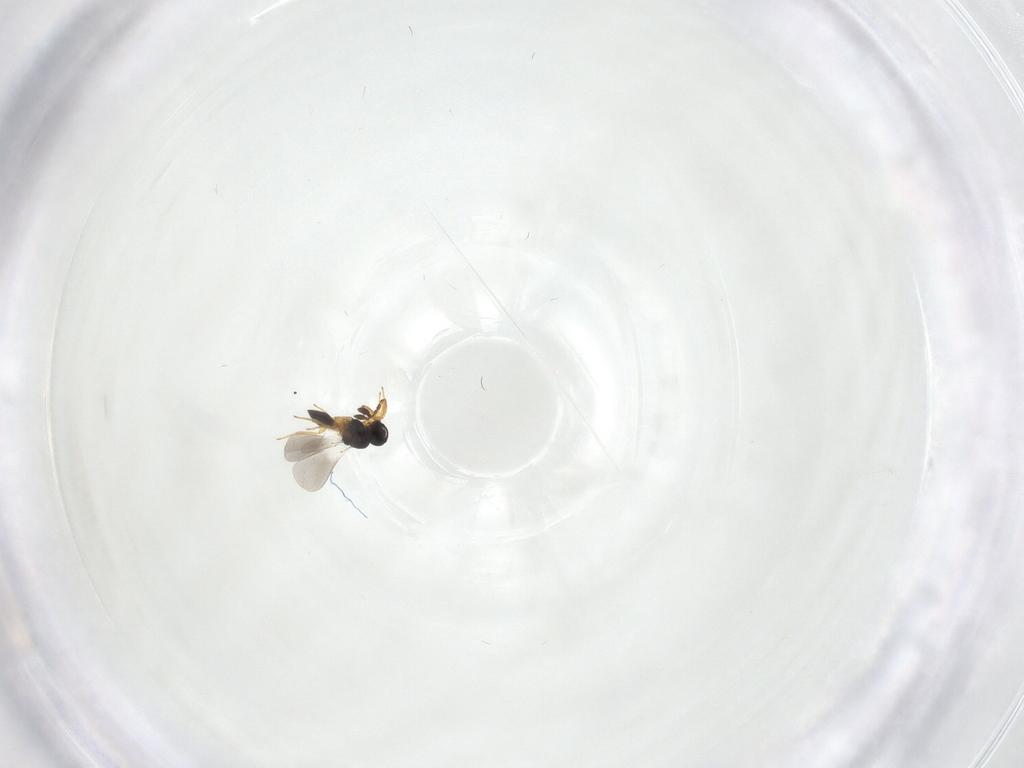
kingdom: Animalia
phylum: Arthropoda
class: Insecta
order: Hymenoptera
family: Platygastridae
